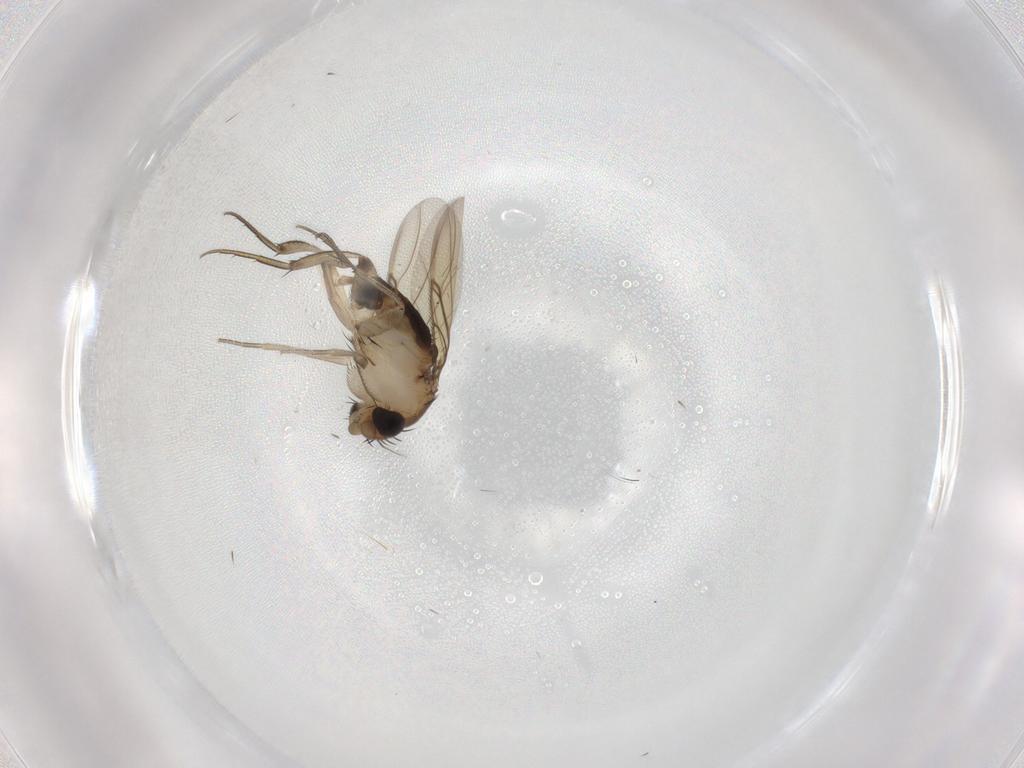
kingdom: Animalia
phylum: Arthropoda
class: Insecta
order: Diptera
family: Phoridae
